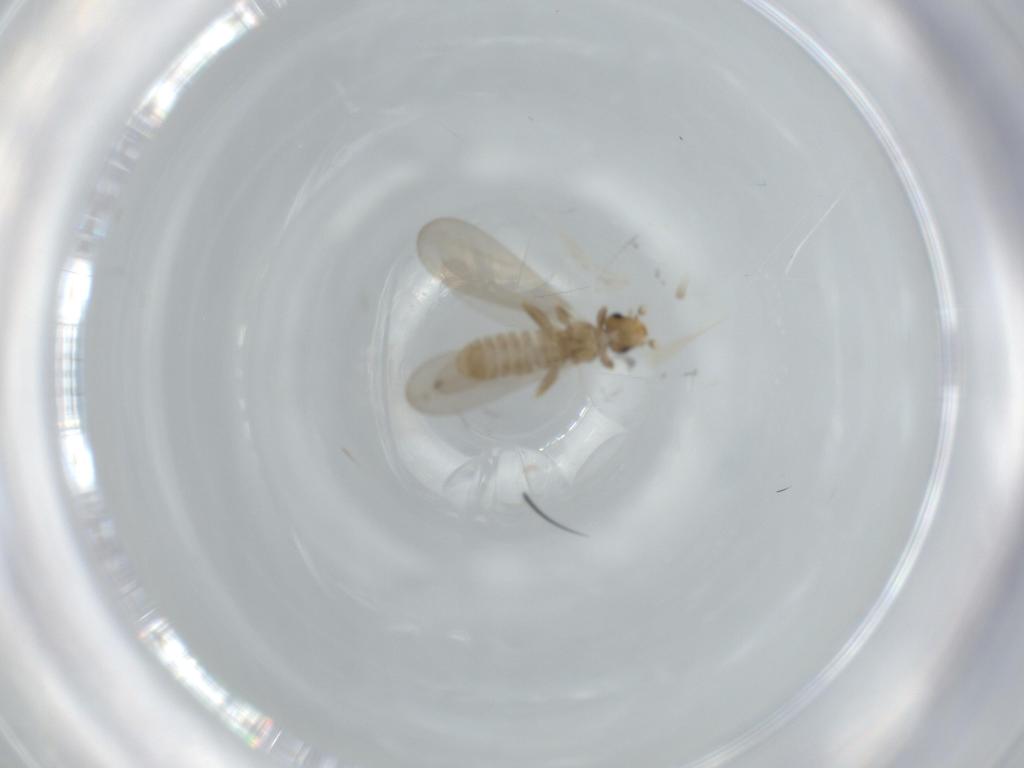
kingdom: Animalia
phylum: Arthropoda
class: Insecta
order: Psocodea
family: Liposcelididae
